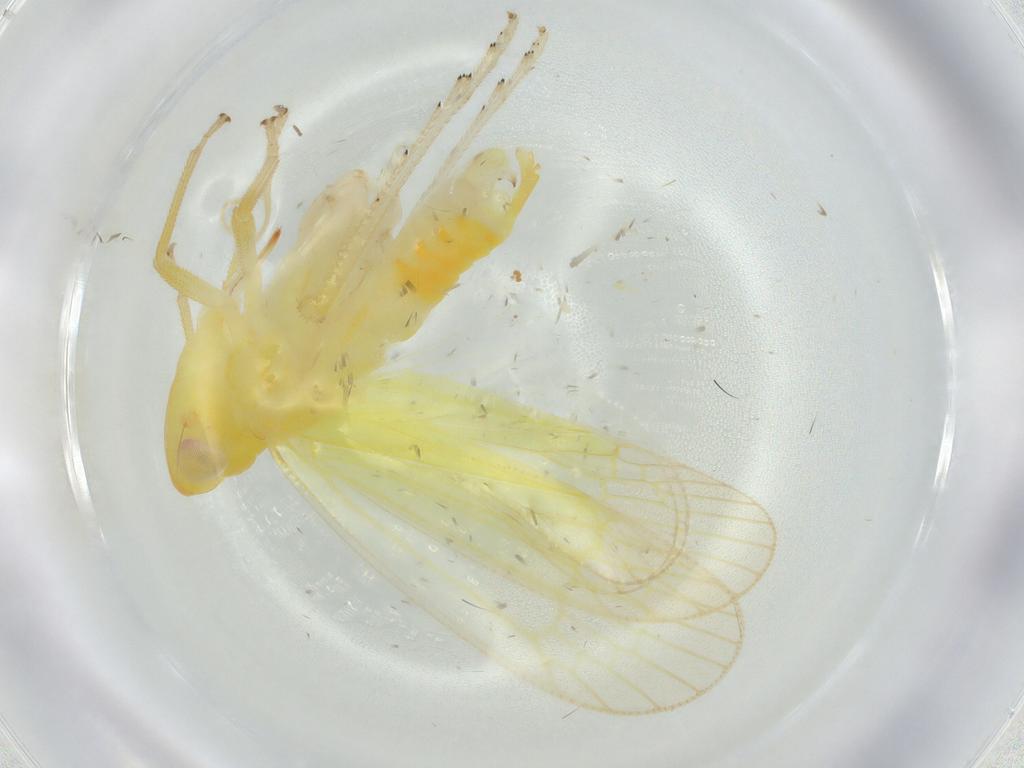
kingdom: Animalia
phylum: Arthropoda
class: Insecta
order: Hemiptera
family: Tropiduchidae
